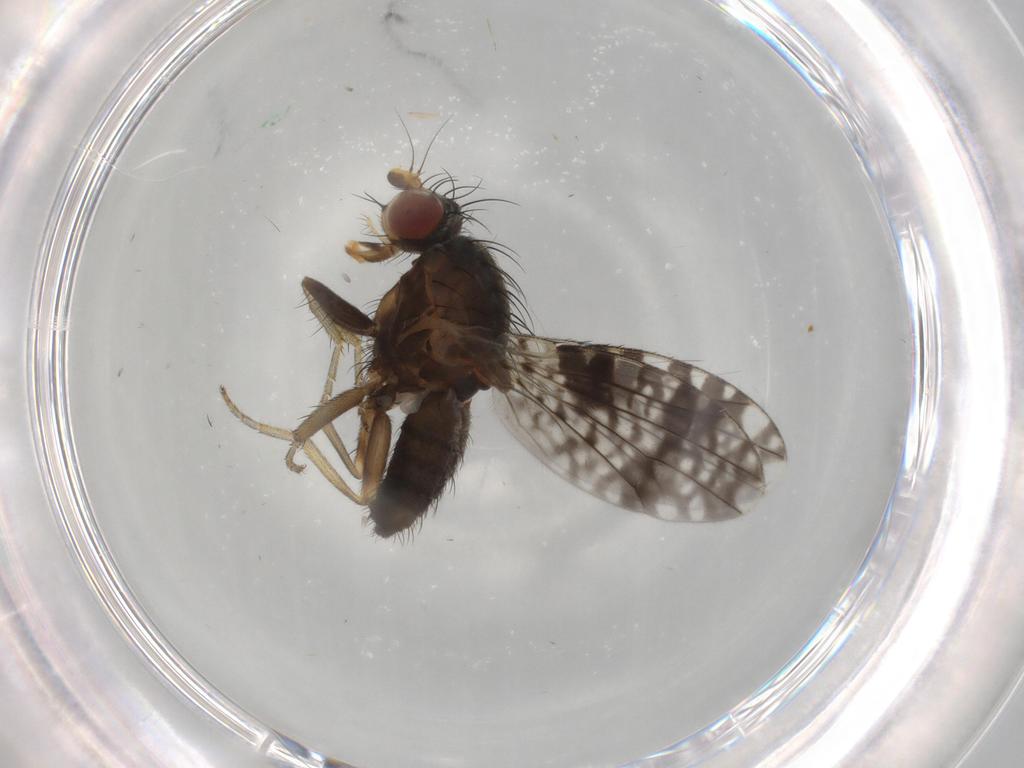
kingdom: Animalia
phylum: Arthropoda
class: Insecta
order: Diptera
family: Tephritidae
